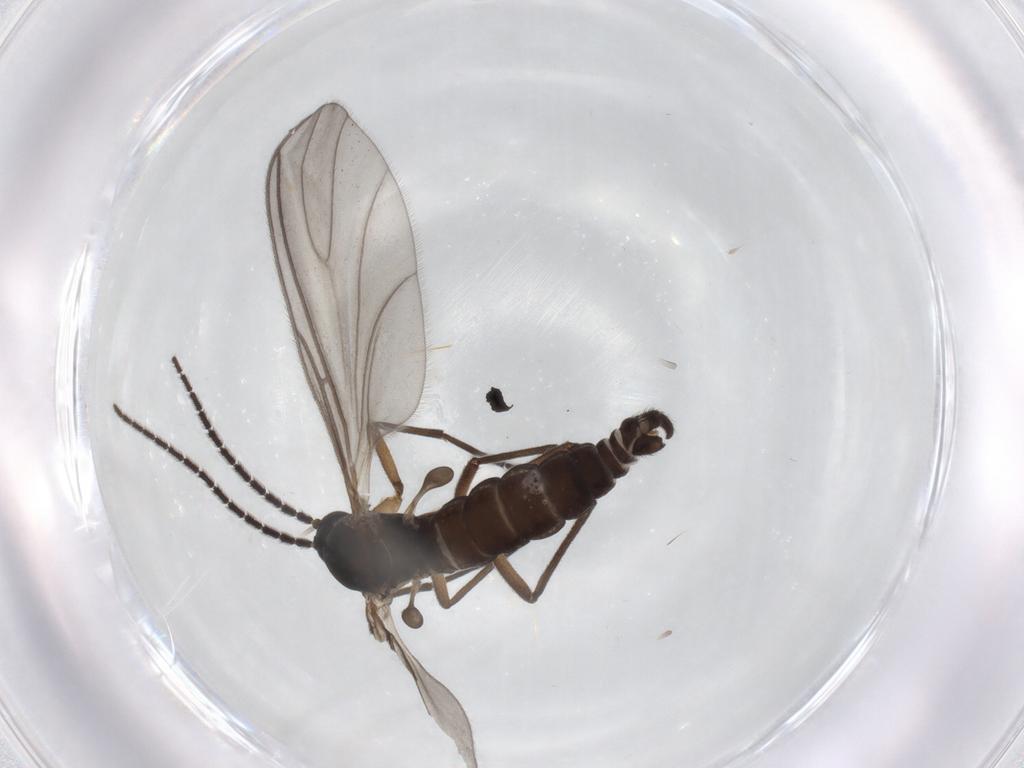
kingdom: Animalia
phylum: Arthropoda
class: Insecta
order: Diptera
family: Sciaridae
